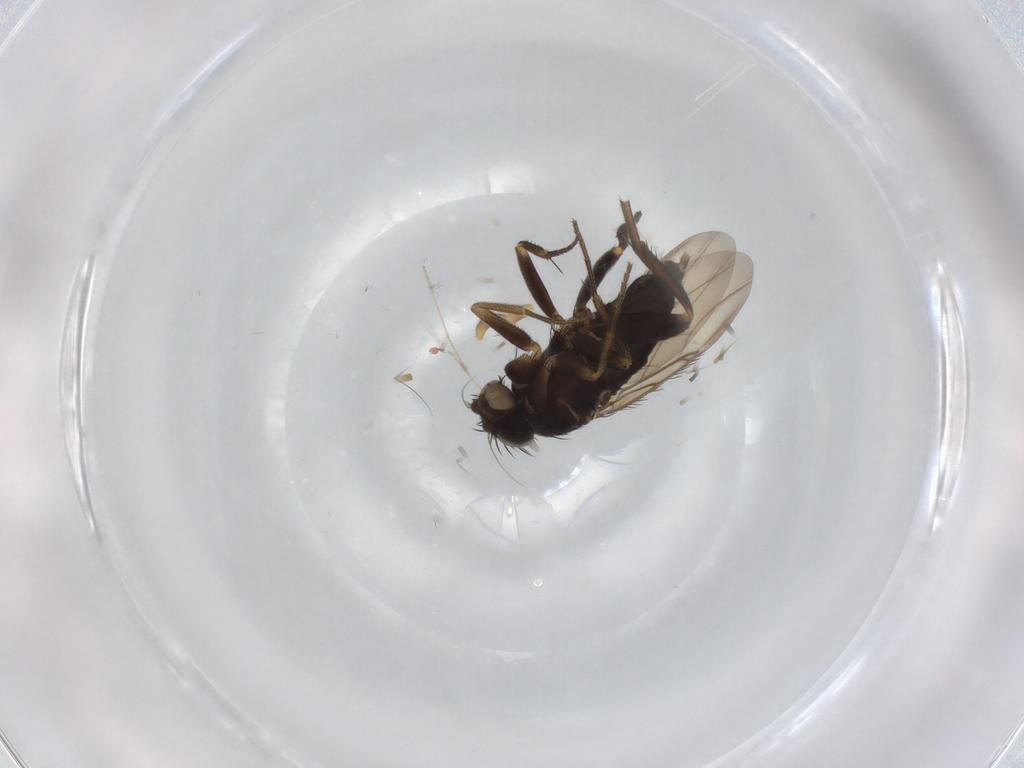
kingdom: Animalia
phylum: Arthropoda
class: Insecta
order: Diptera
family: Phoridae
